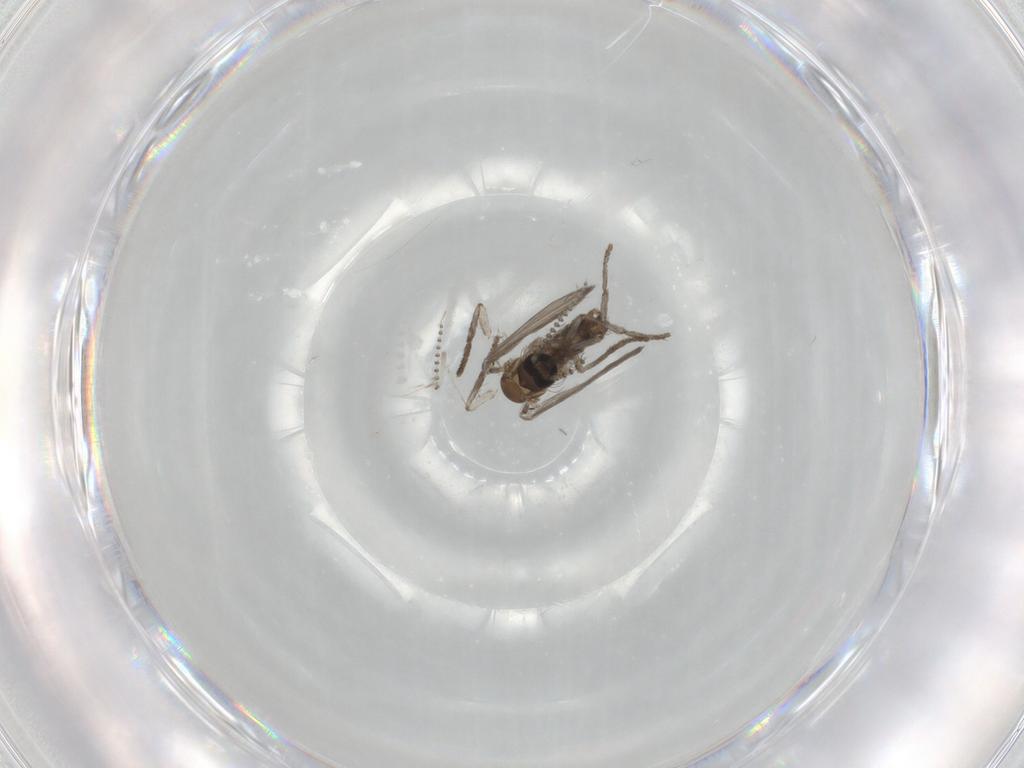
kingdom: Animalia
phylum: Arthropoda
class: Insecta
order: Diptera
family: Psychodidae
